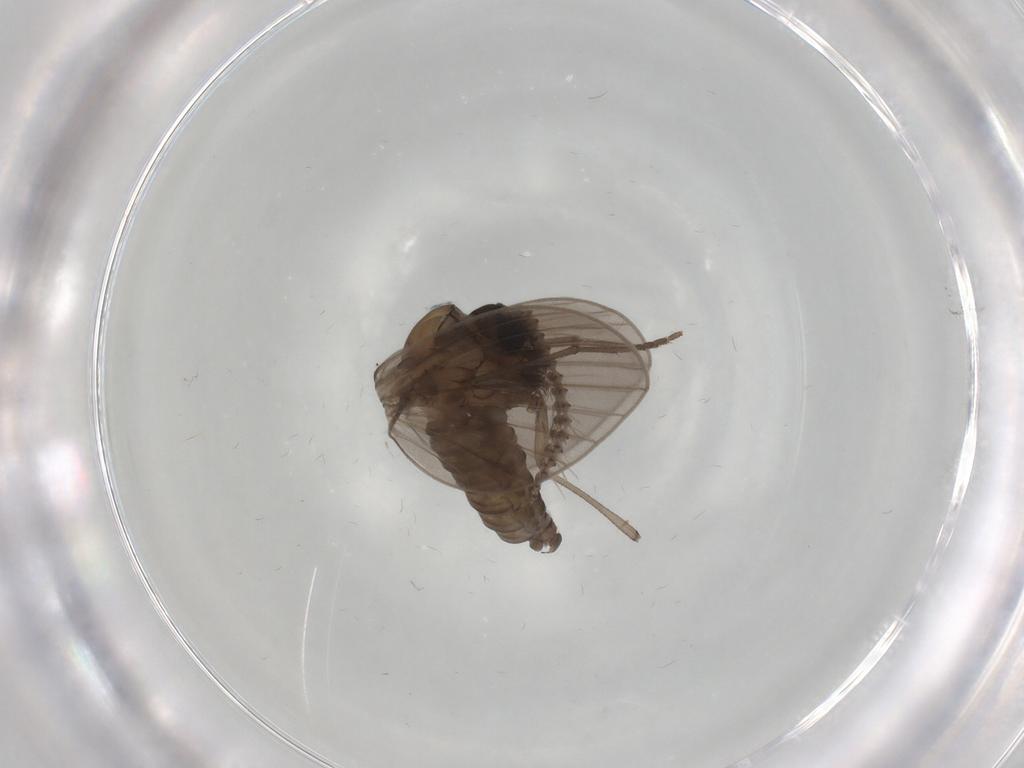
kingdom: Animalia
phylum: Arthropoda
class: Insecta
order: Diptera
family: Psychodidae
